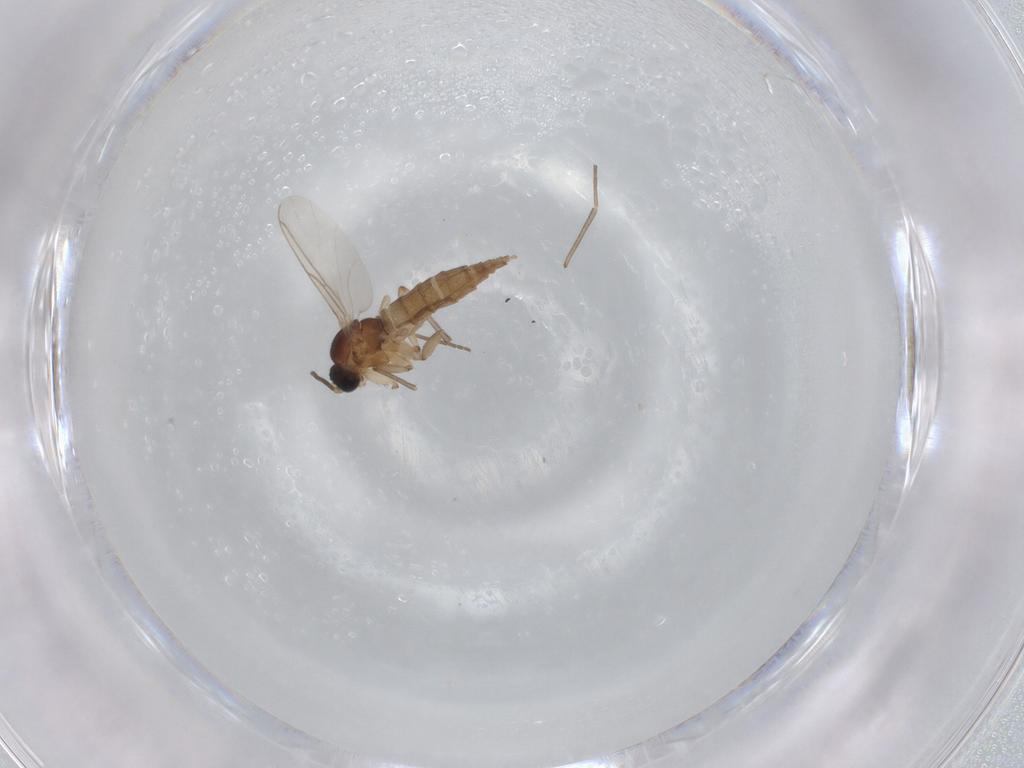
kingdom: Animalia
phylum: Arthropoda
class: Insecta
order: Diptera
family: Sciaridae
